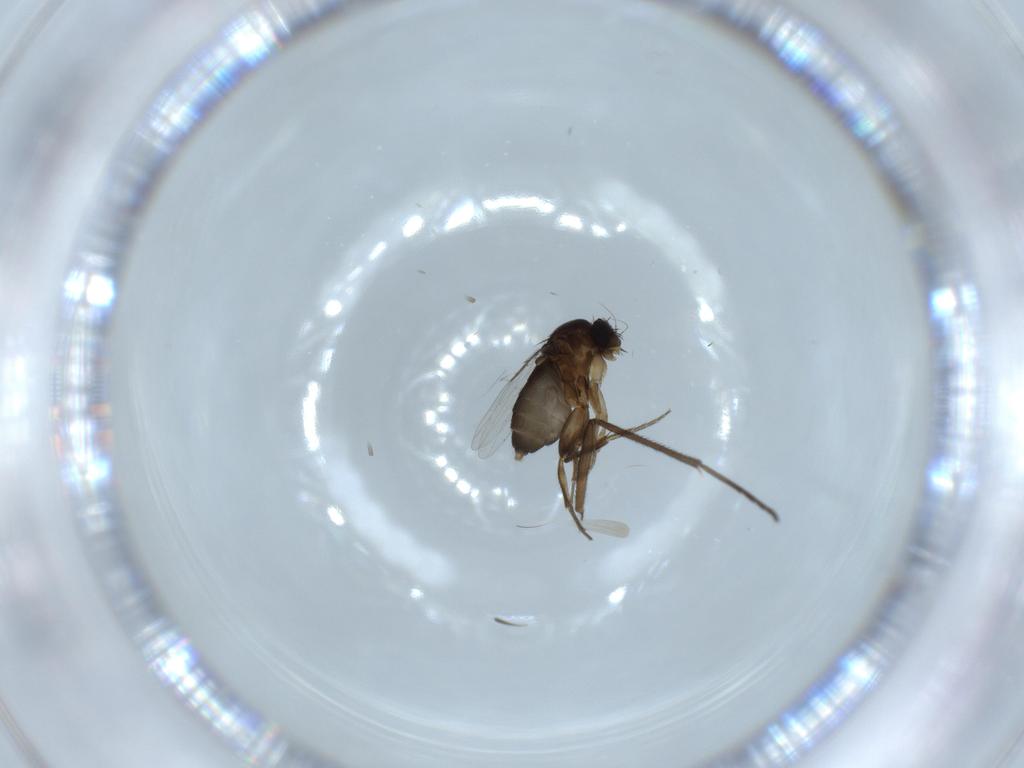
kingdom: Animalia
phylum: Arthropoda
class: Insecta
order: Diptera
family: Phoridae
